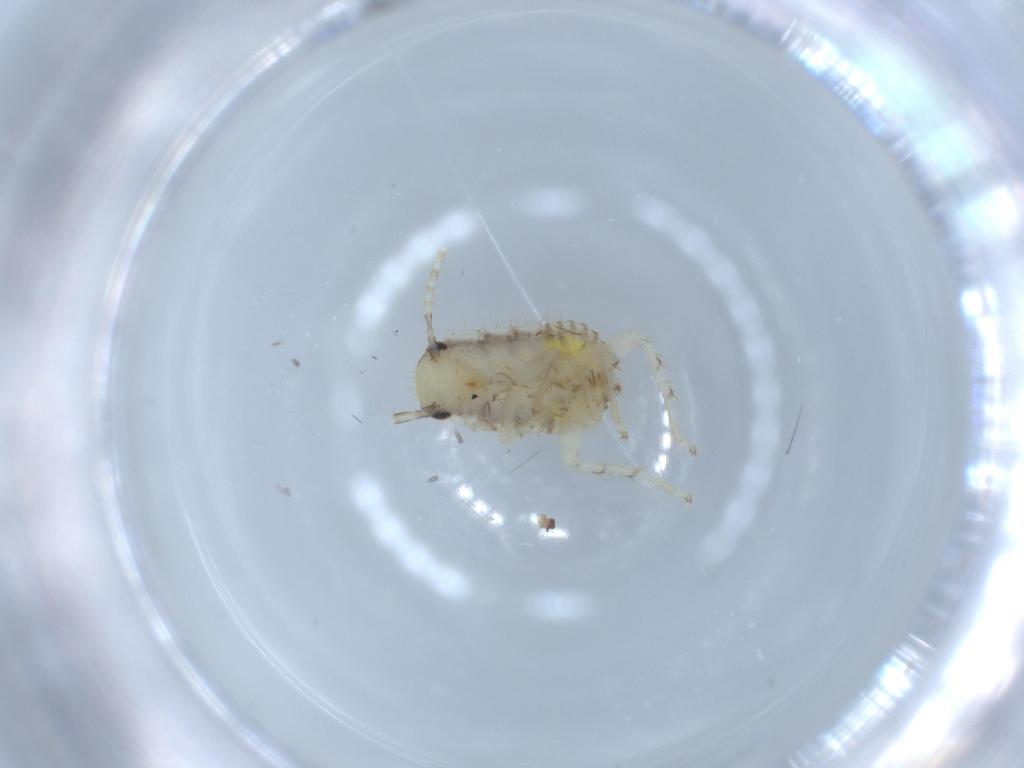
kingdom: Animalia
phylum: Arthropoda
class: Insecta
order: Blattodea
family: Ectobiidae
